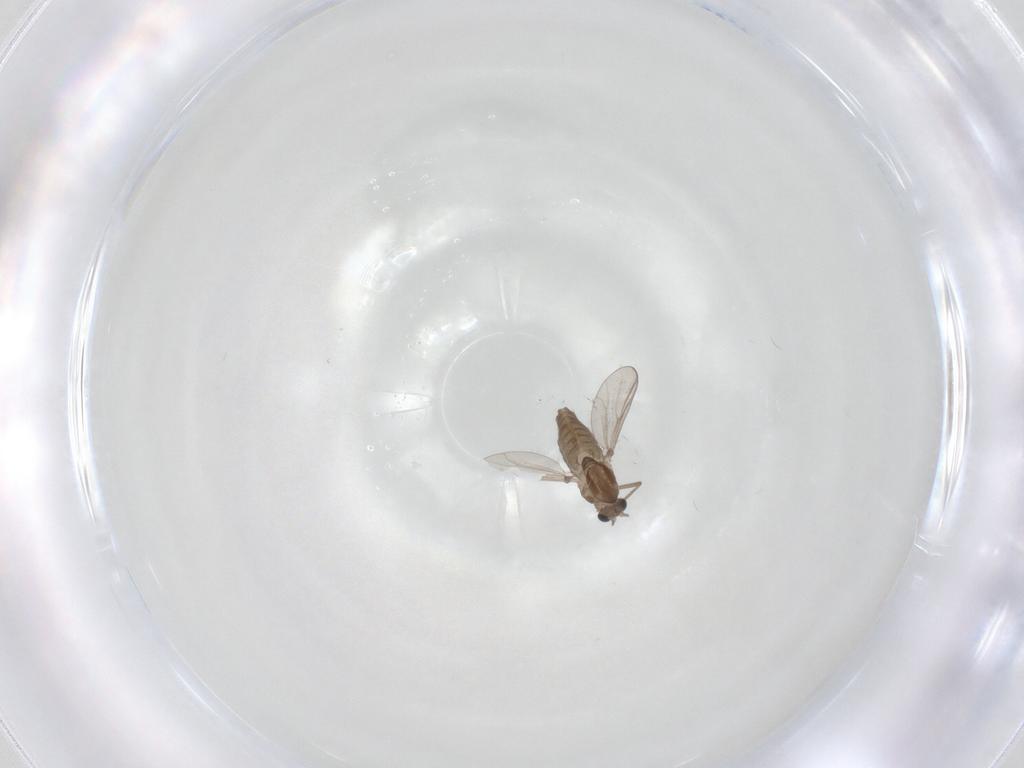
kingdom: Animalia
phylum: Arthropoda
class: Insecta
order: Diptera
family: Chironomidae
